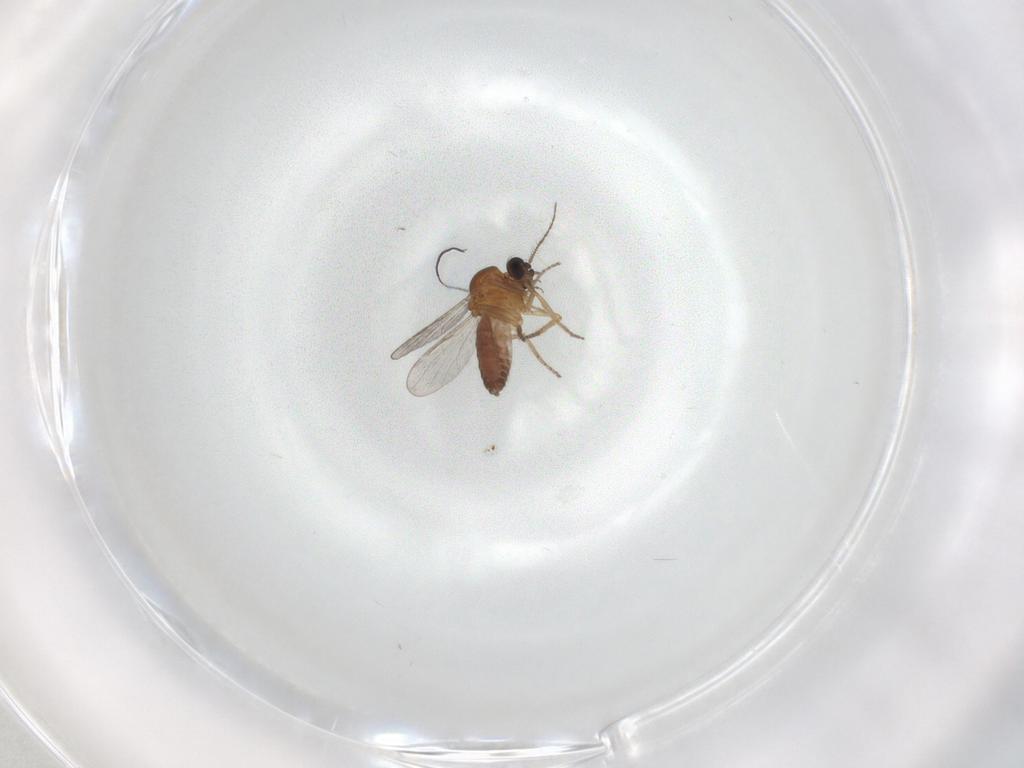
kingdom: Animalia
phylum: Arthropoda
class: Insecta
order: Diptera
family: Ceratopogonidae
